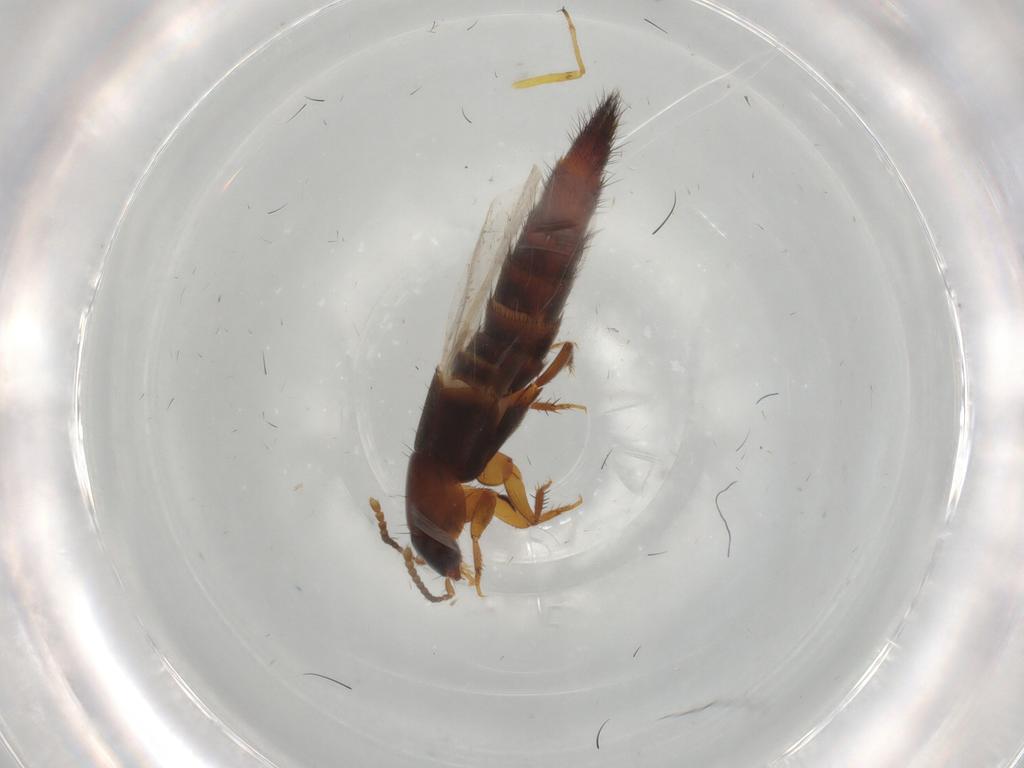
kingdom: Animalia
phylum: Arthropoda
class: Insecta
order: Coleoptera
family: Staphylinidae
